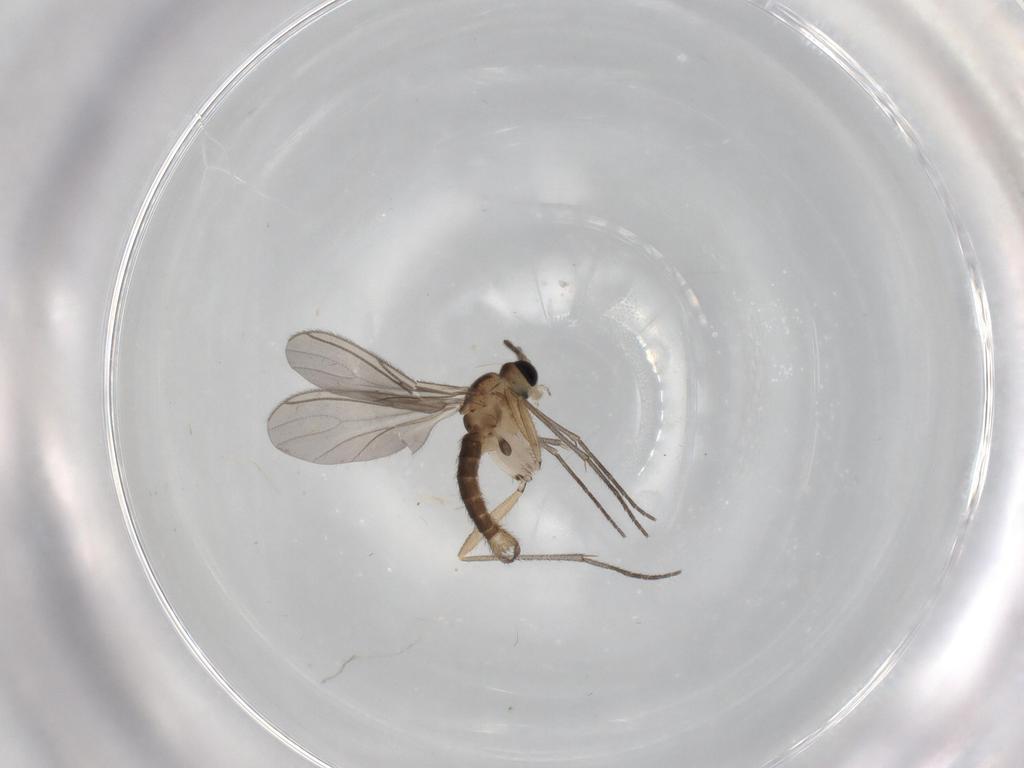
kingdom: Animalia
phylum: Arthropoda
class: Insecta
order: Diptera
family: Sciaridae
